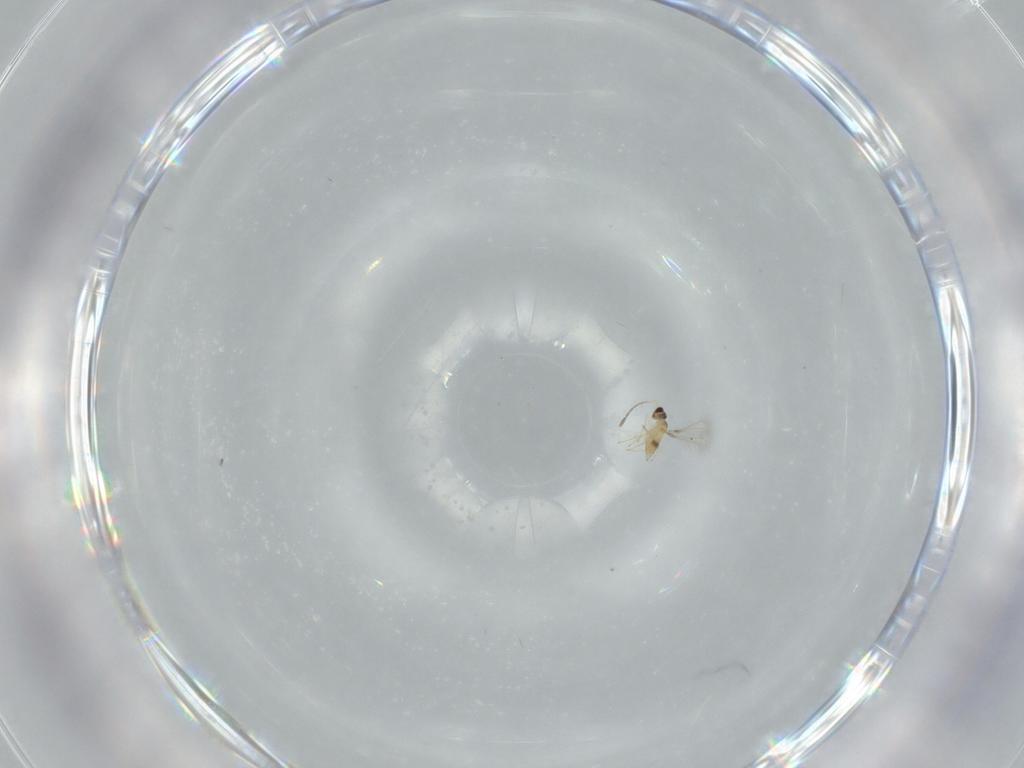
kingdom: Animalia
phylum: Arthropoda
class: Insecta
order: Hymenoptera
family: Mymaridae
